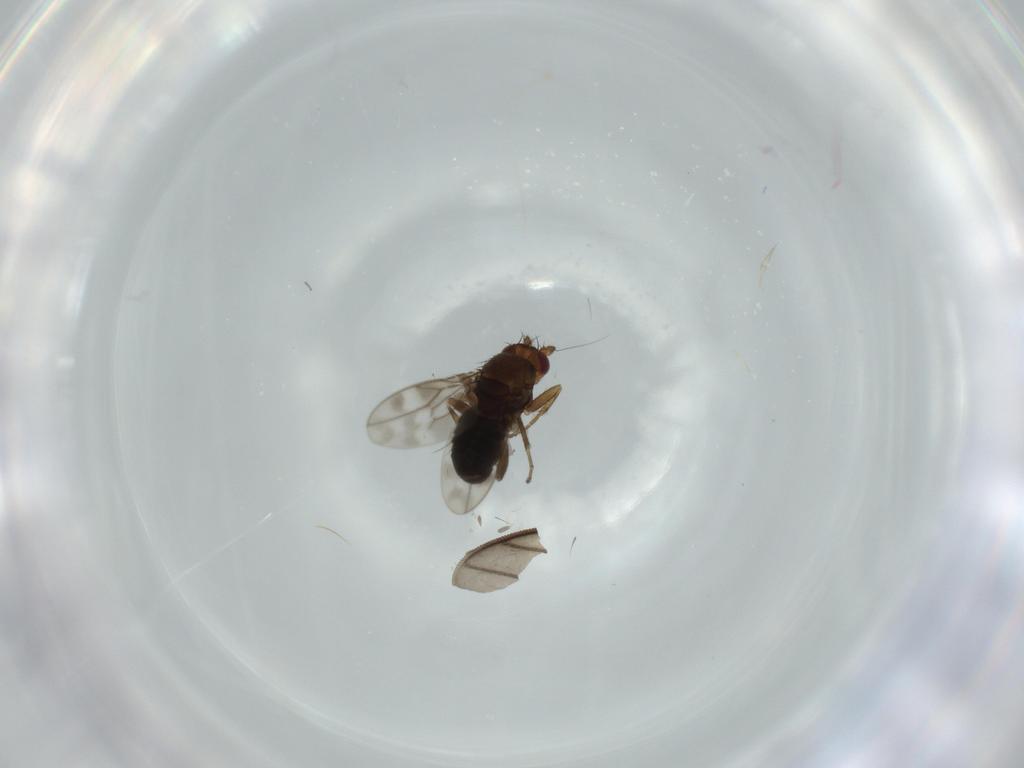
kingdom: Animalia
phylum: Arthropoda
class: Insecta
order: Diptera
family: Sphaeroceridae
